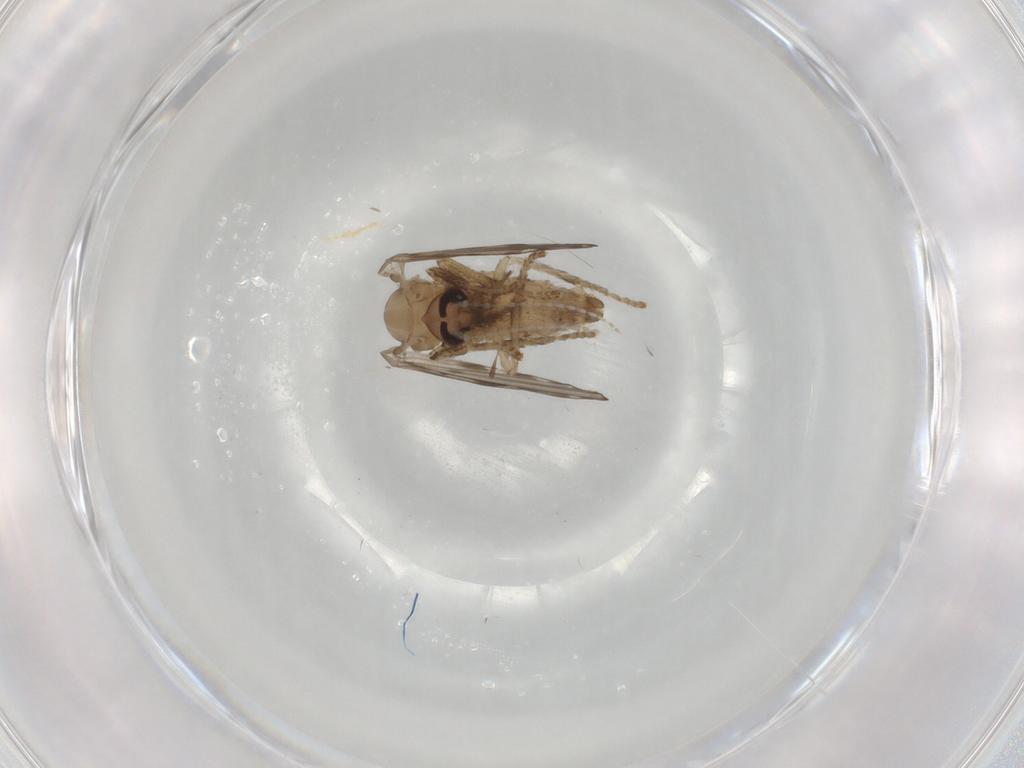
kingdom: Animalia
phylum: Arthropoda
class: Insecta
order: Diptera
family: Psychodidae
